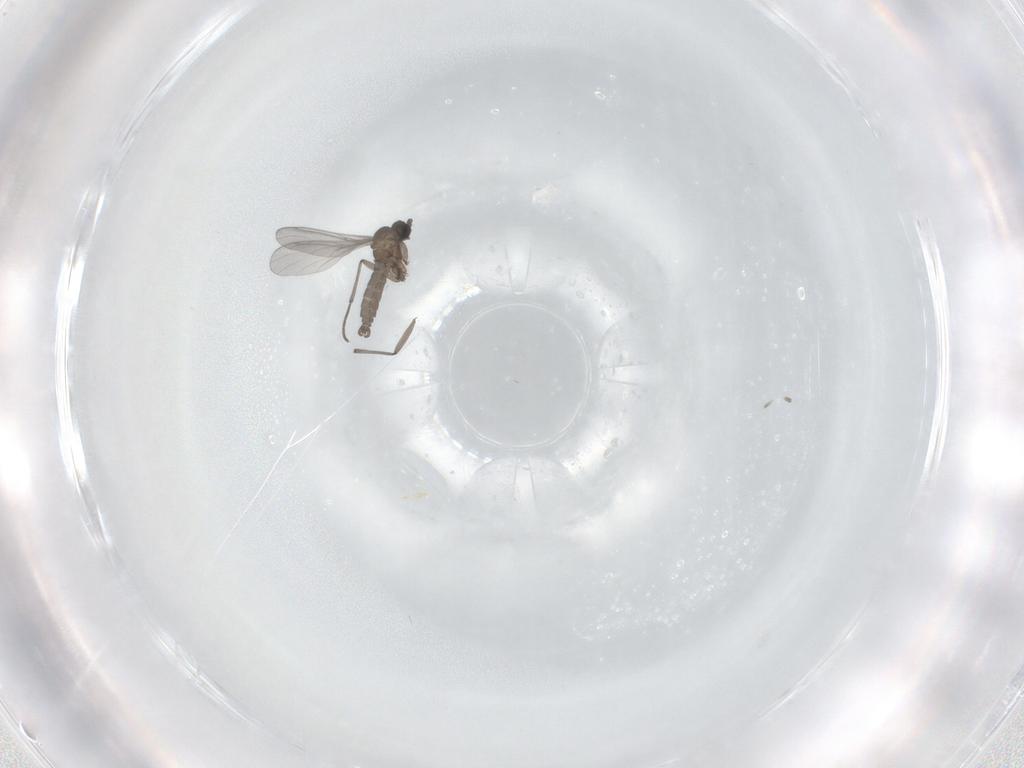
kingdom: Animalia
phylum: Arthropoda
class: Insecta
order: Diptera
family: Sciaridae
